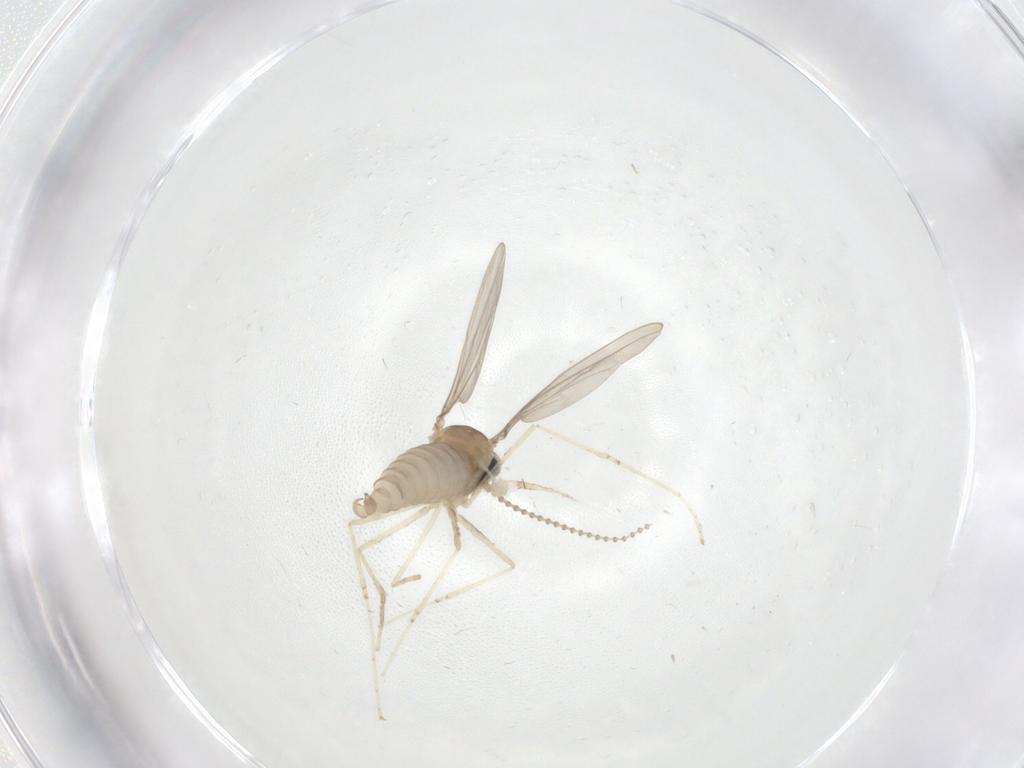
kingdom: Animalia
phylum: Arthropoda
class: Insecta
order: Diptera
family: Cecidomyiidae
